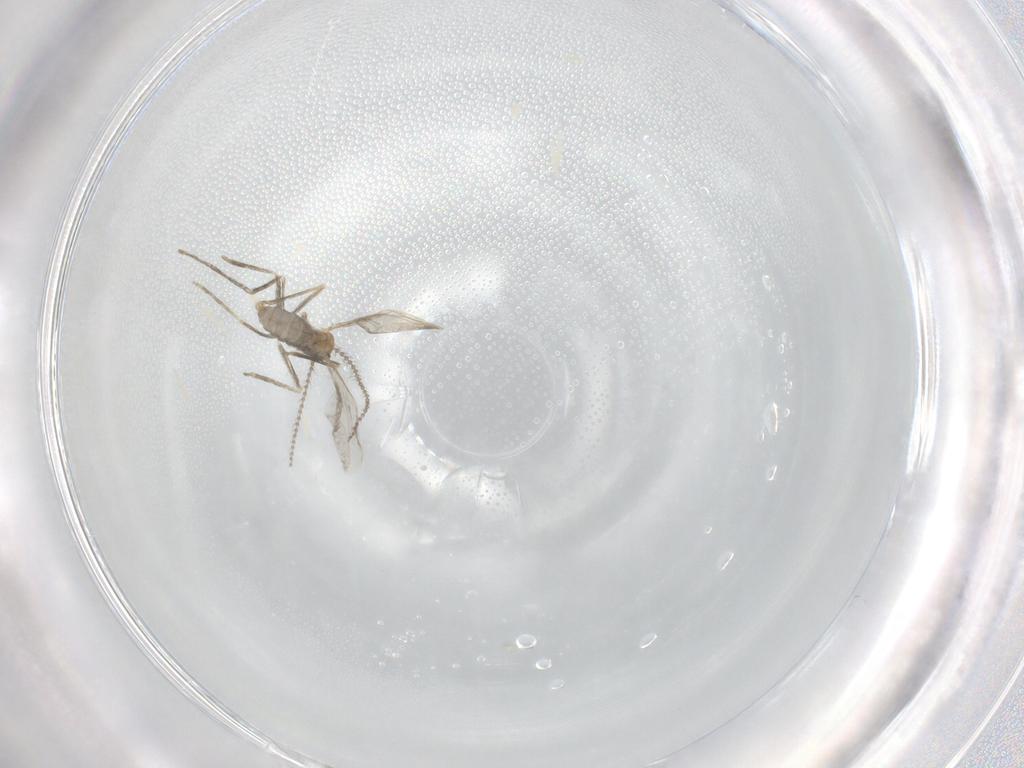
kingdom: Animalia
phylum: Arthropoda
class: Insecta
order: Diptera
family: Cecidomyiidae
